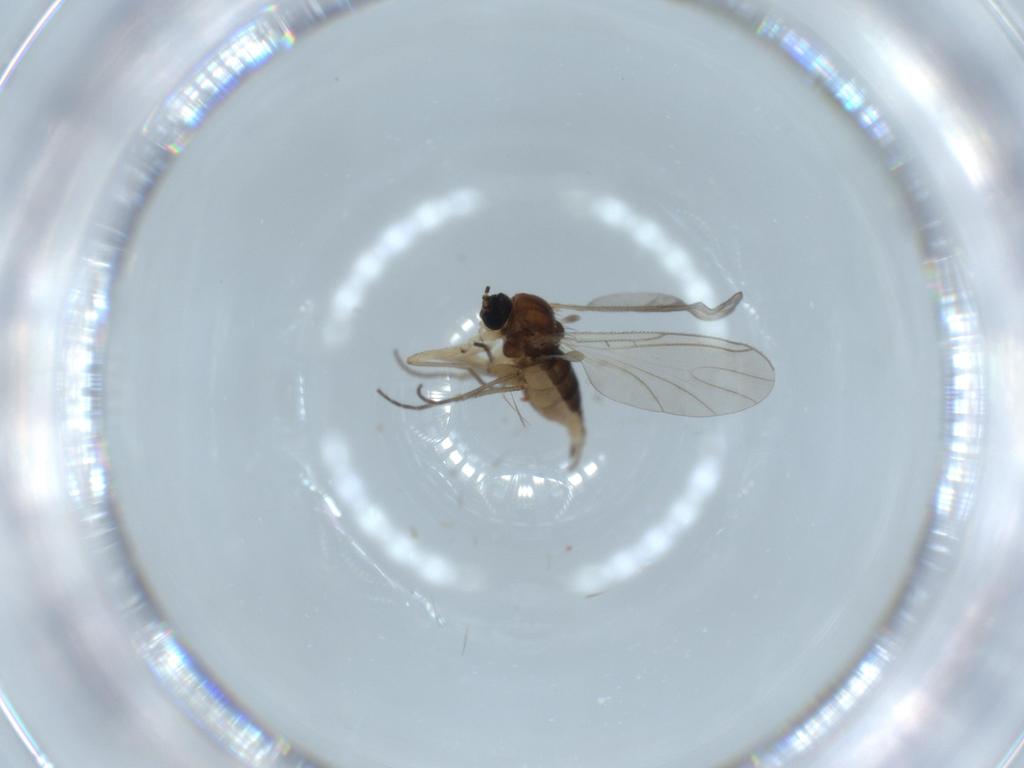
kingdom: Animalia
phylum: Arthropoda
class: Insecta
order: Diptera
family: Sciaridae
